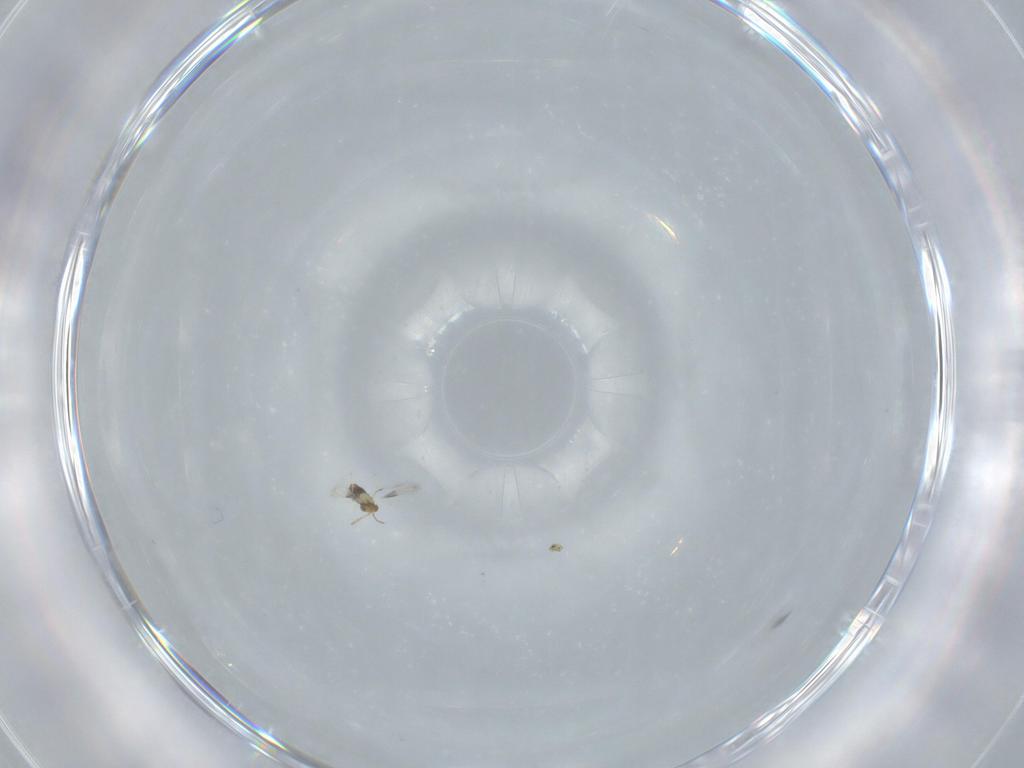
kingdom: Animalia
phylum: Arthropoda
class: Insecta
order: Hymenoptera
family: Aphelinidae
